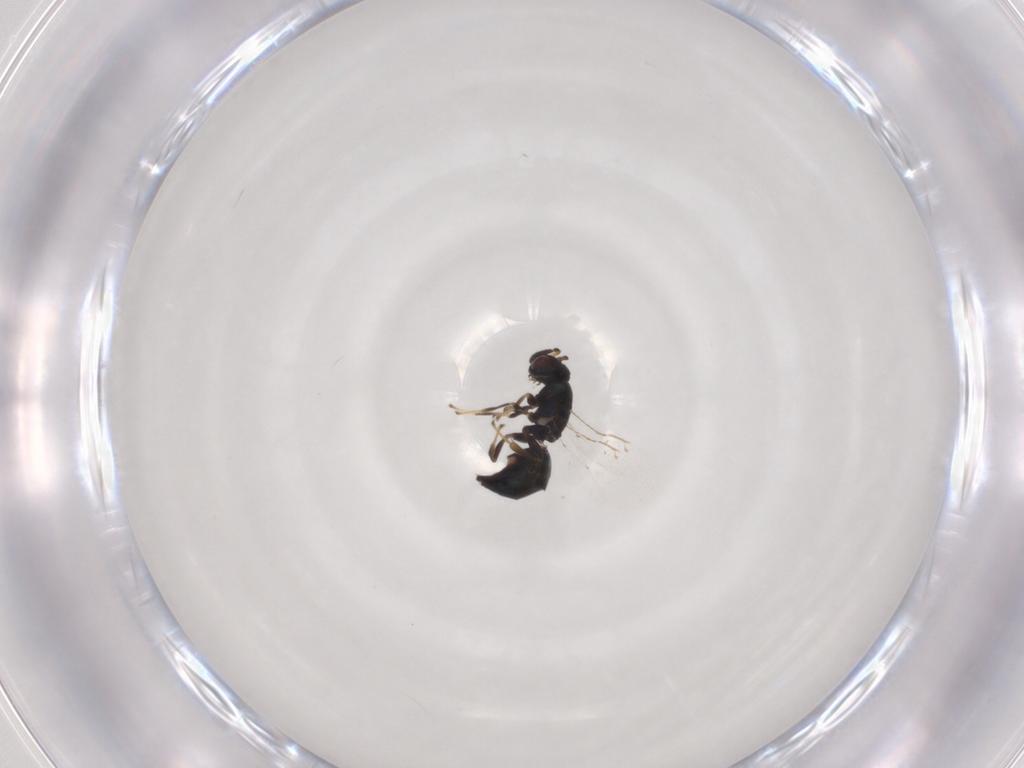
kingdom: Animalia
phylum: Arthropoda
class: Insecta
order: Hymenoptera
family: Pteromalidae
